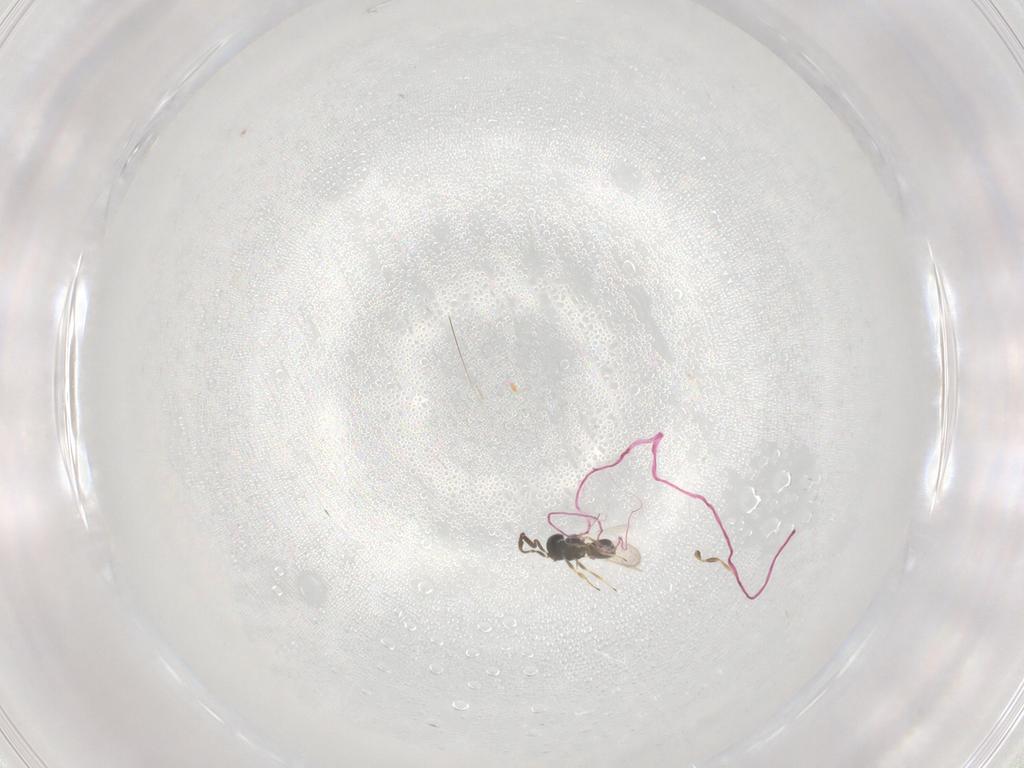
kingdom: Animalia
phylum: Arthropoda
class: Insecta
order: Hymenoptera
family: Scelionidae
